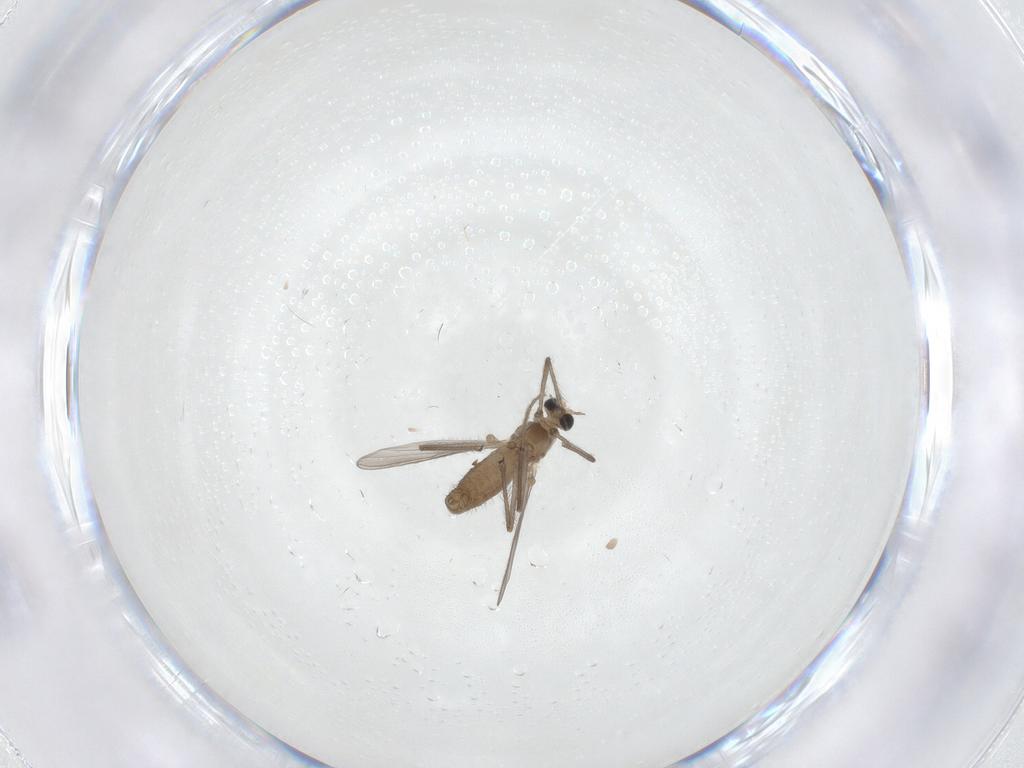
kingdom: Animalia
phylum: Arthropoda
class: Insecta
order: Diptera
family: Chironomidae
